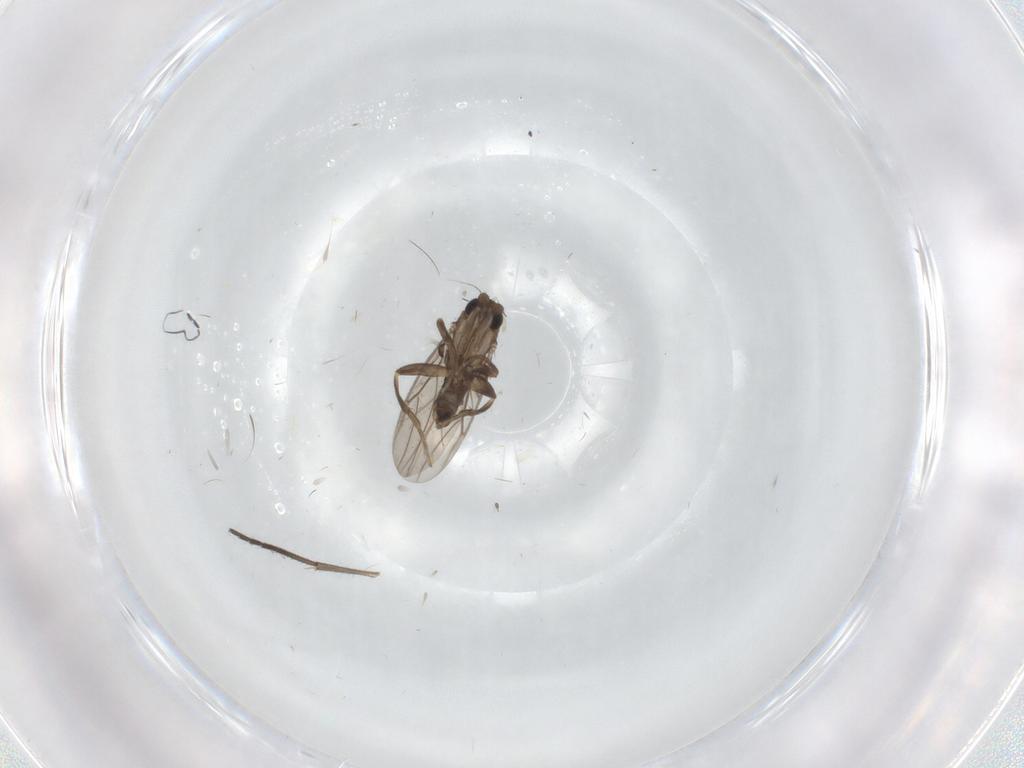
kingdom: Animalia
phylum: Arthropoda
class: Insecta
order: Diptera
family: Sciaridae
